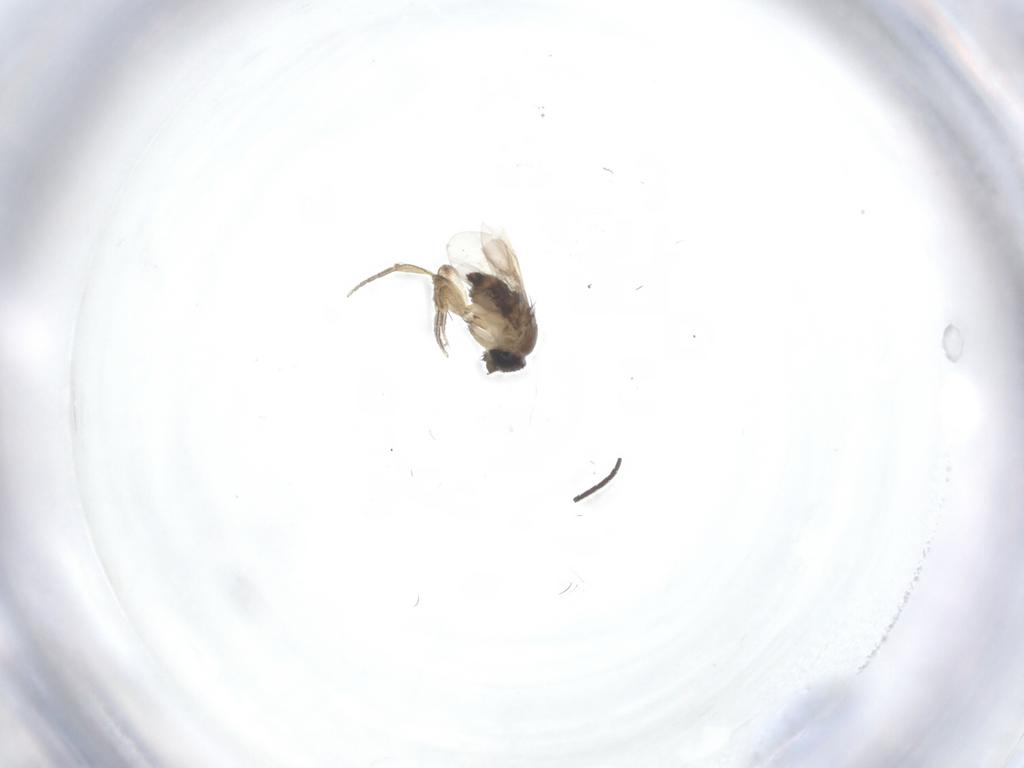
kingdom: Animalia
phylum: Arthropoda
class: Insecta
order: Diptera
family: Phoridae
